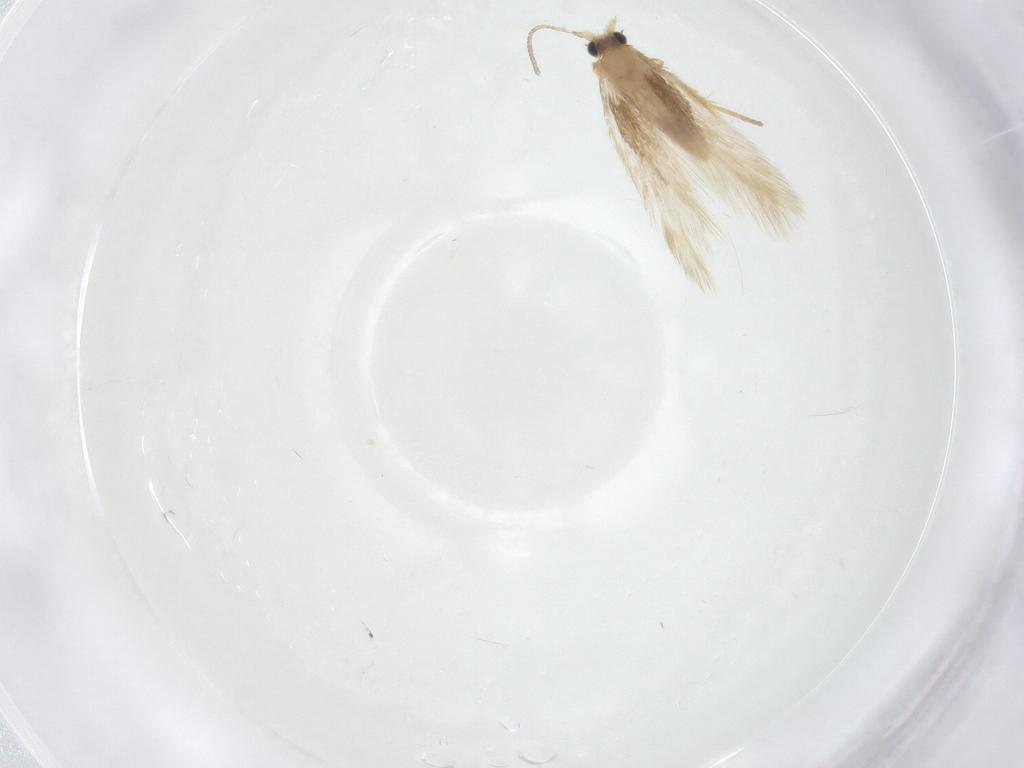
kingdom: Animalia
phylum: Arthropoda
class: Insecta
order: Lepidoptera
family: Nepticulidae
